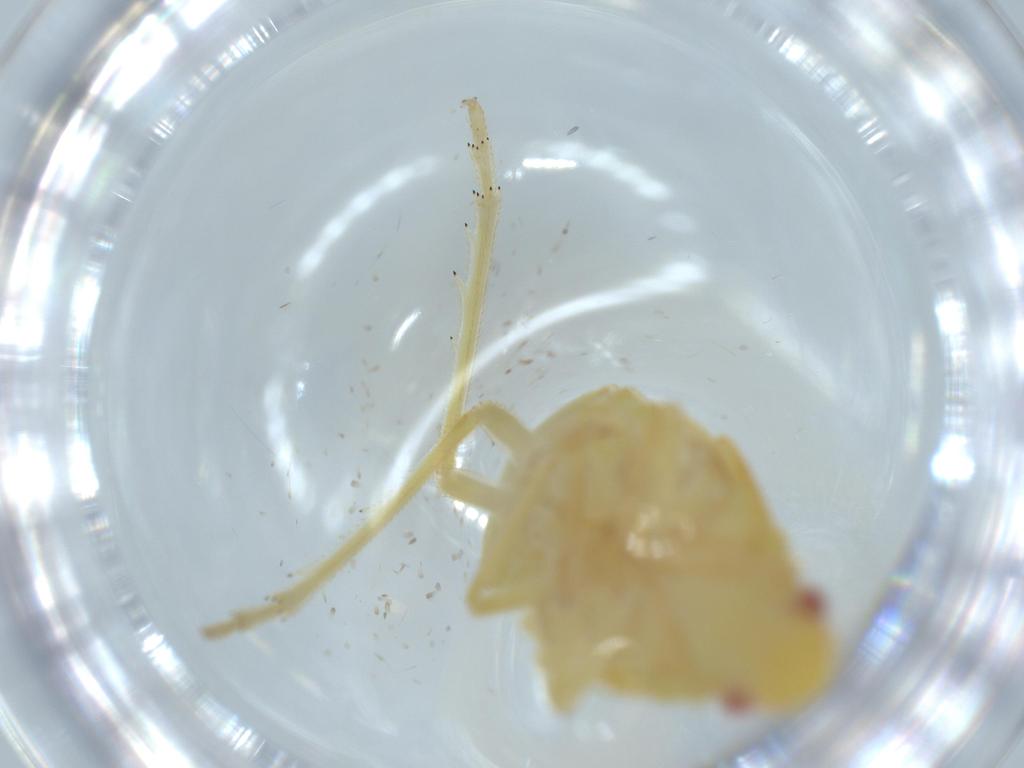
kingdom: Animalia
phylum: Arthropoda
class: Insecta
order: Hemiptera
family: Tropiduchidae
